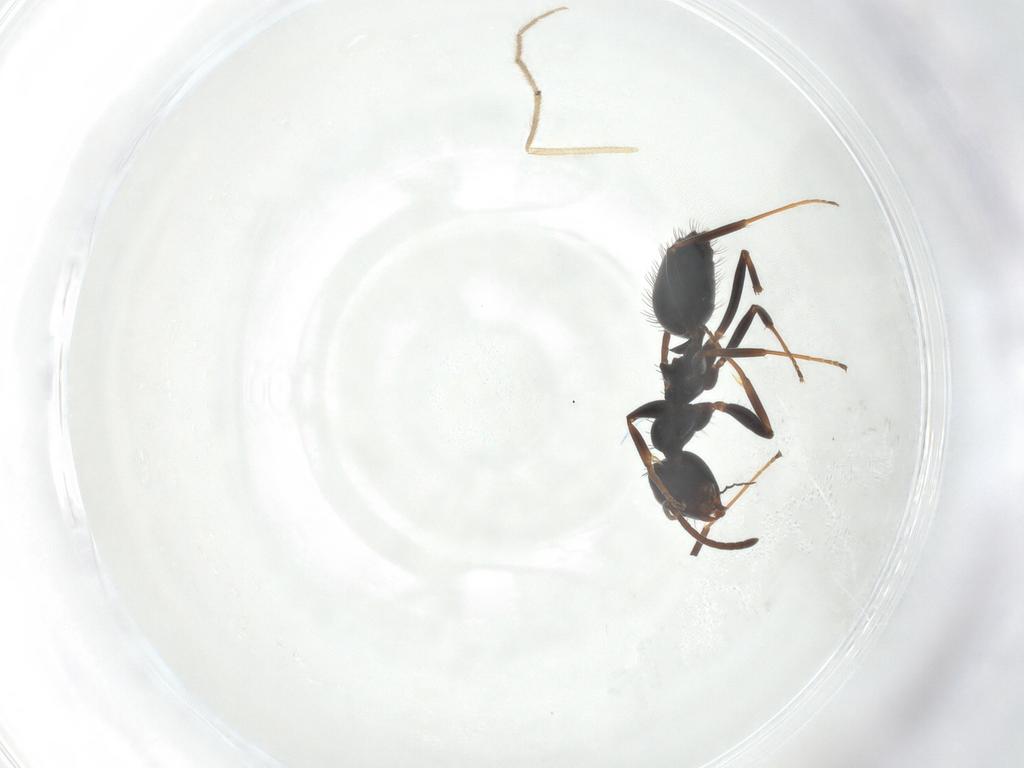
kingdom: Animalia
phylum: Arthropoda
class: Insecta
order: Hymenoptera
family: Formicidae
